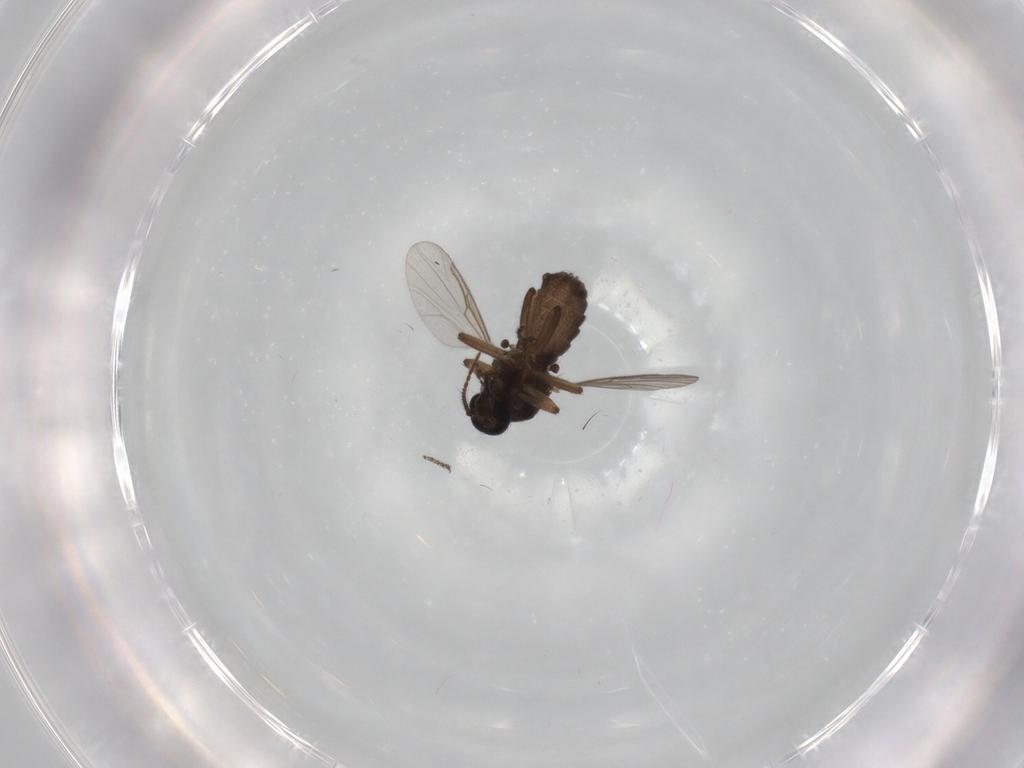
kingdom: Animalia
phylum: Arthropoda
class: Insecta
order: Diptera
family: Ceratopogonidae
